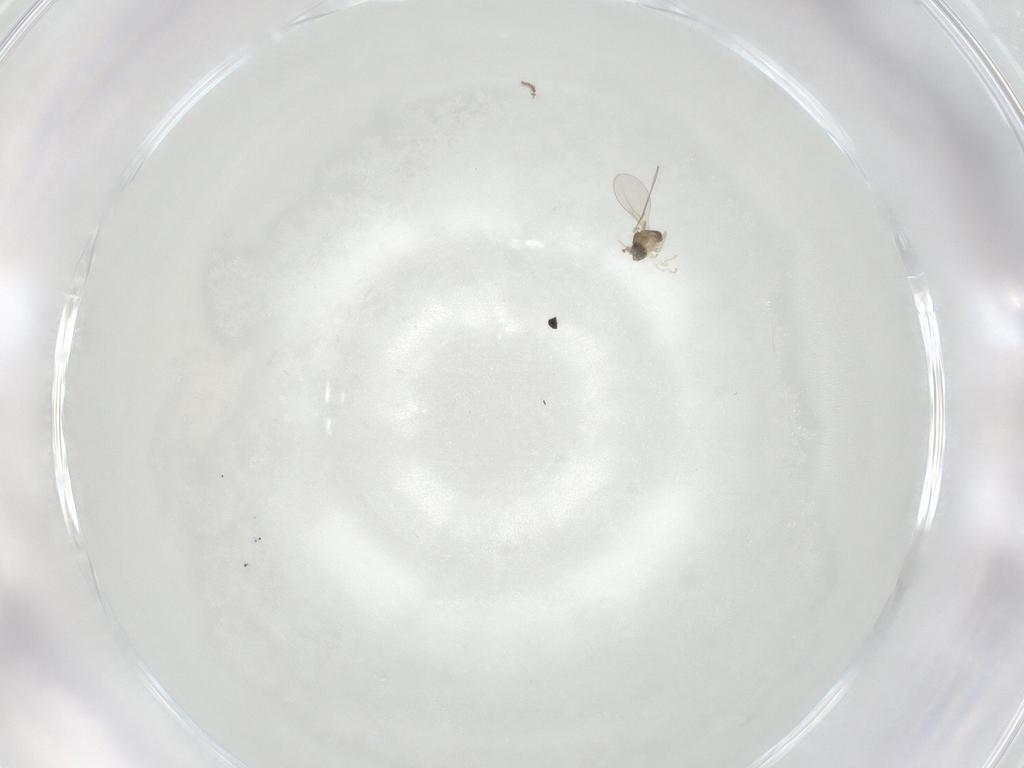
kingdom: Animalia
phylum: Arthropoda
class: Insecta
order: Diptera
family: Cecidomyiidae
